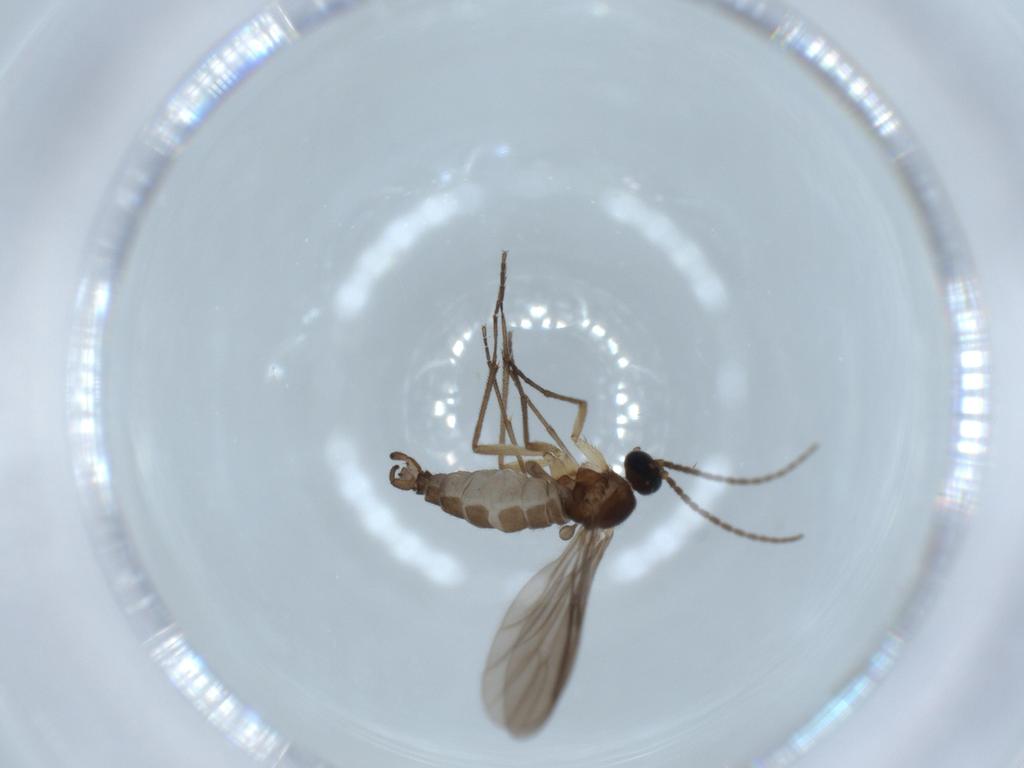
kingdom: Animalia
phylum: Arthropoda
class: Insecta
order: Diptera
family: Sciaridae
